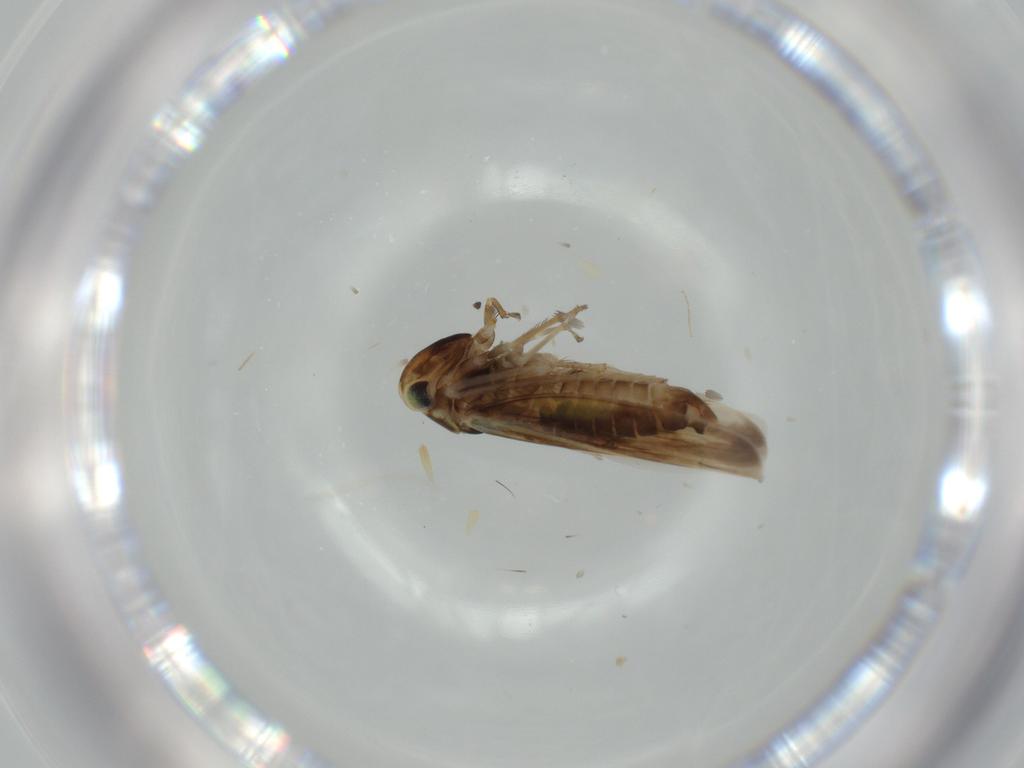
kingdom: Animalia
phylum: Arthropoda
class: Insecta
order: Hemiptera
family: Cicadellidae
